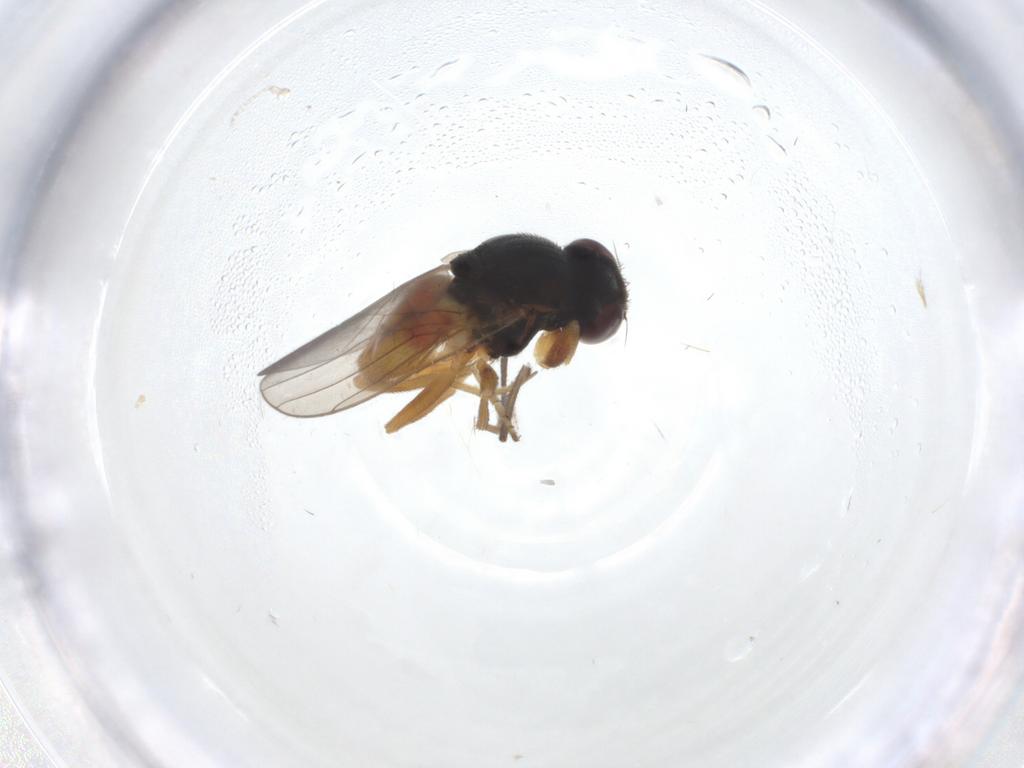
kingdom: Animalia
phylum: Arthropoda
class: Insecta
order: Diptera
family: Chloropidae
